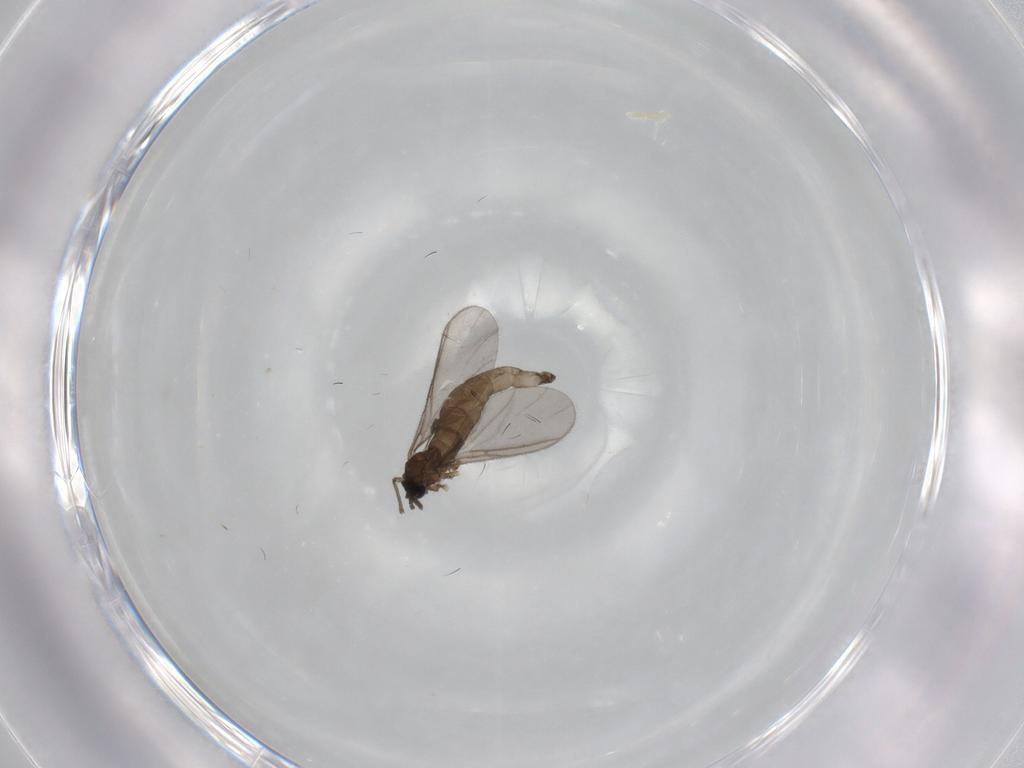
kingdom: Animalia
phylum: Arthropoda
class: Insecta
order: Diptera
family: Sciaridae
